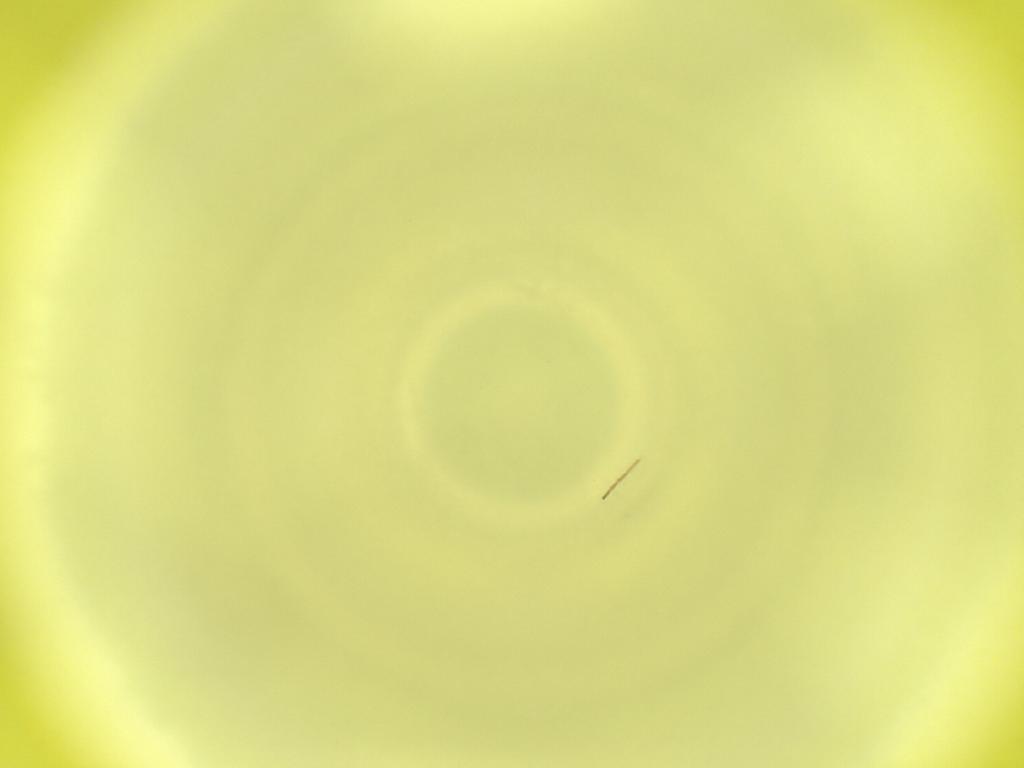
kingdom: Animalia
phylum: Arthropoda
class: Insecta
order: Diptera
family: Cecidomyiidae
